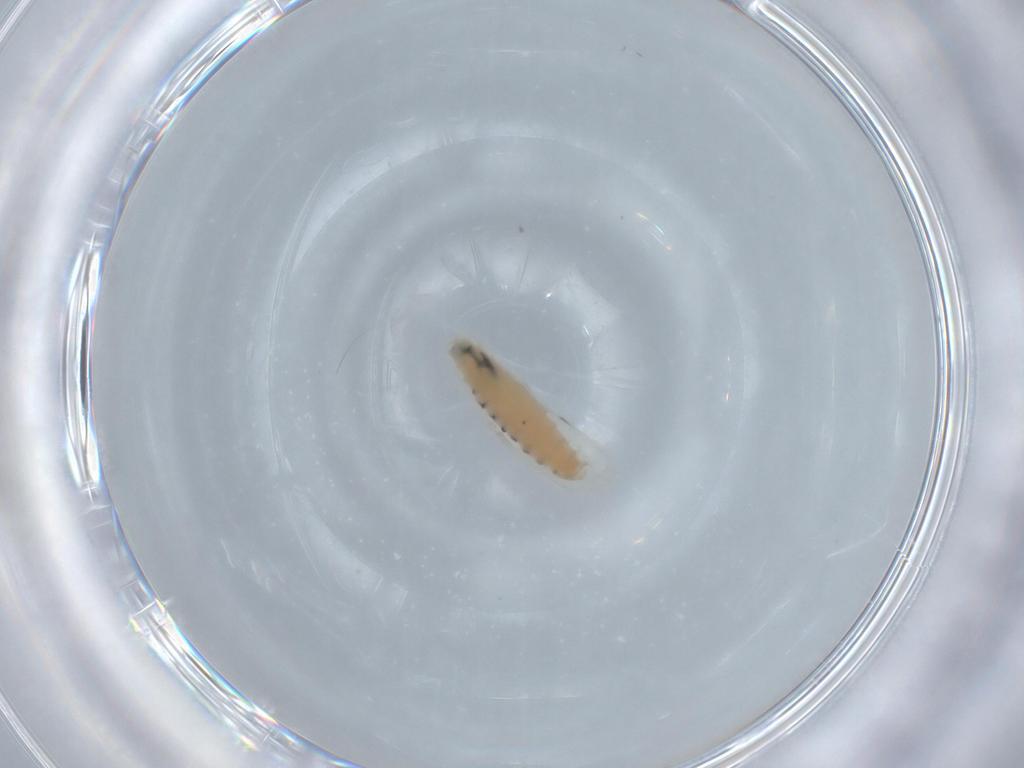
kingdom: Animalia
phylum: Arthropoda
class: Insecta
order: Diptera
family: Sarcophagidae
